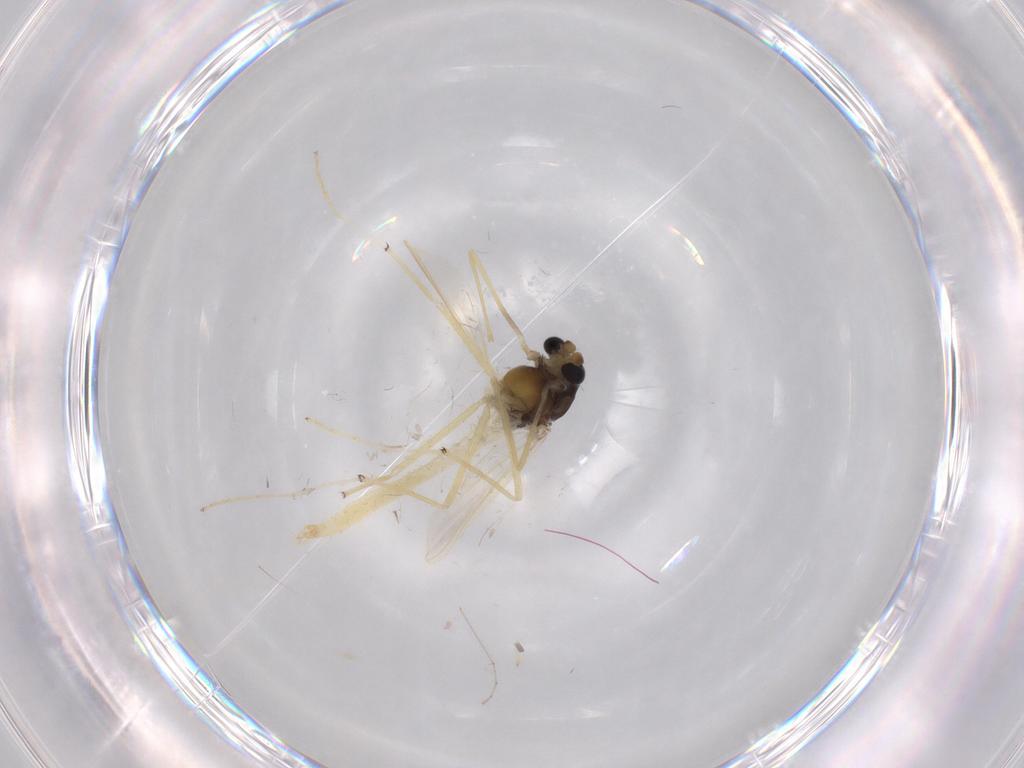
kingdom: Animalia
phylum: Arthropoda
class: Insecta
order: Diptera
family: Chironomidae
